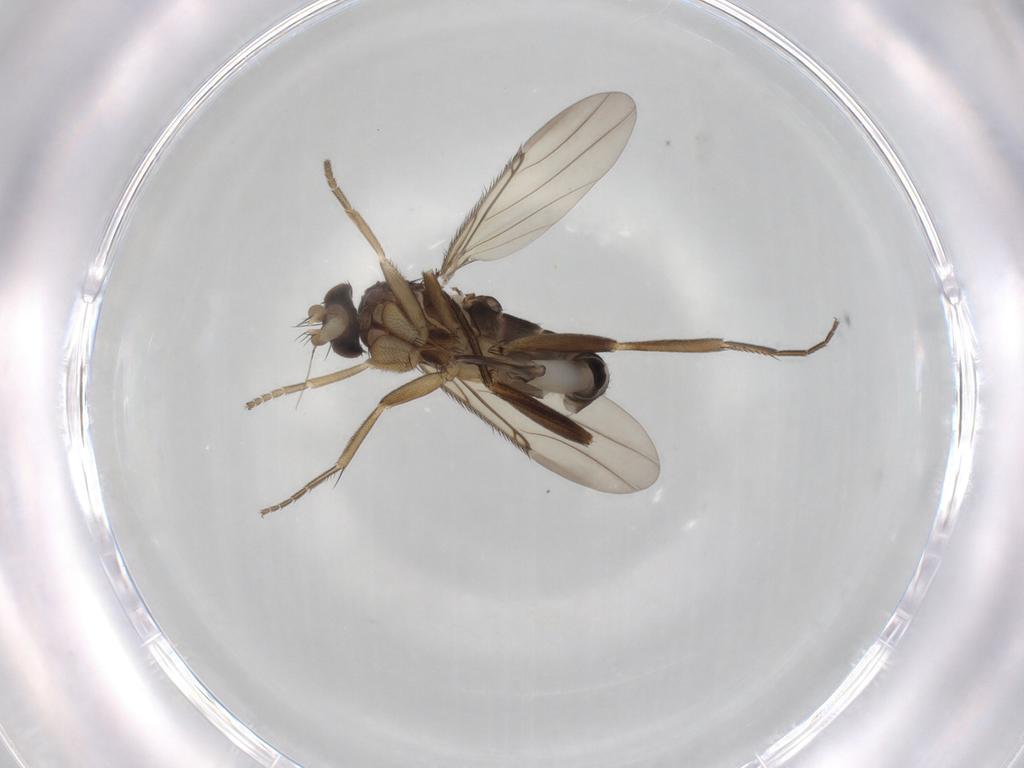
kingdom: Animalia
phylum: Arthropoda
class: Insecta
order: Diptera
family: Phoridae
